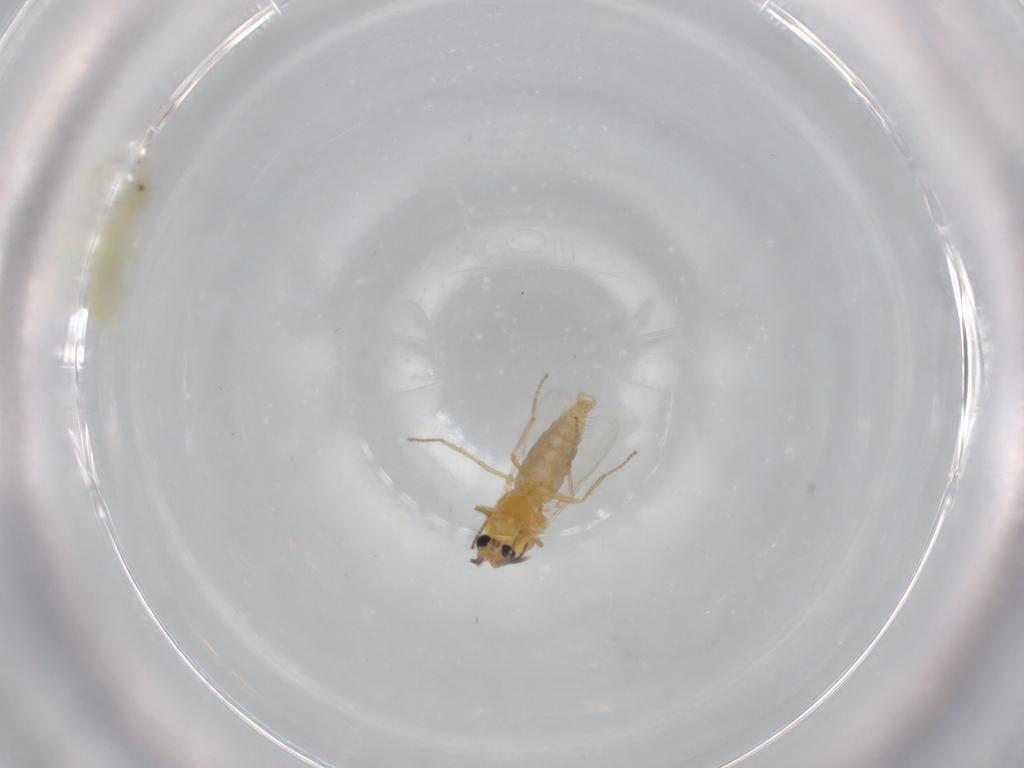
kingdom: Animalia
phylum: Arthropoda
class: Insecta
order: Diptera
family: Ceratopogonidae
